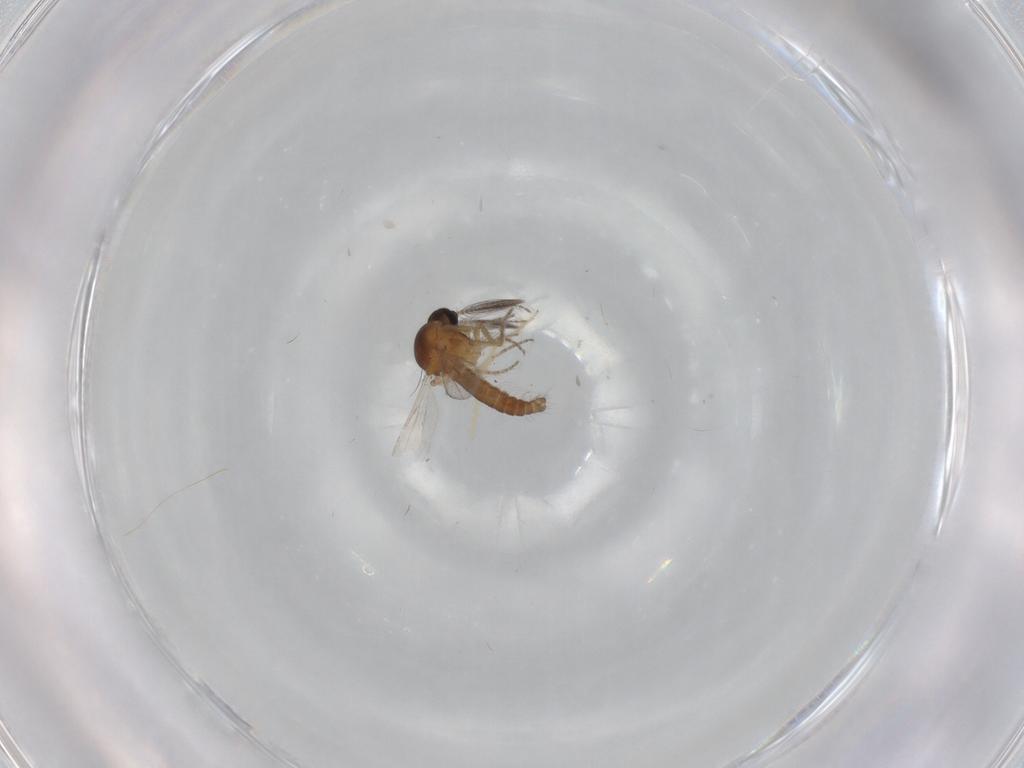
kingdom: Animalia
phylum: Arthropoda
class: Insecta
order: Diptera
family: Ceratopogonidae
